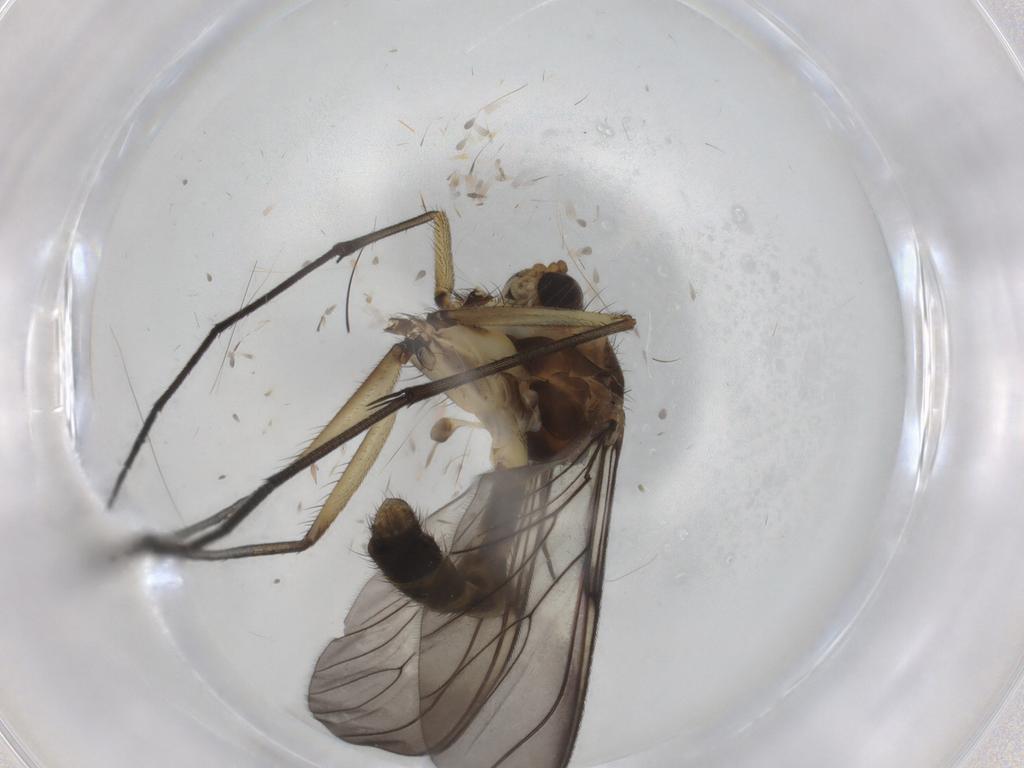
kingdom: Animalia
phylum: Arthropoda
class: Insecta
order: Diptera
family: Mycetophilidae
